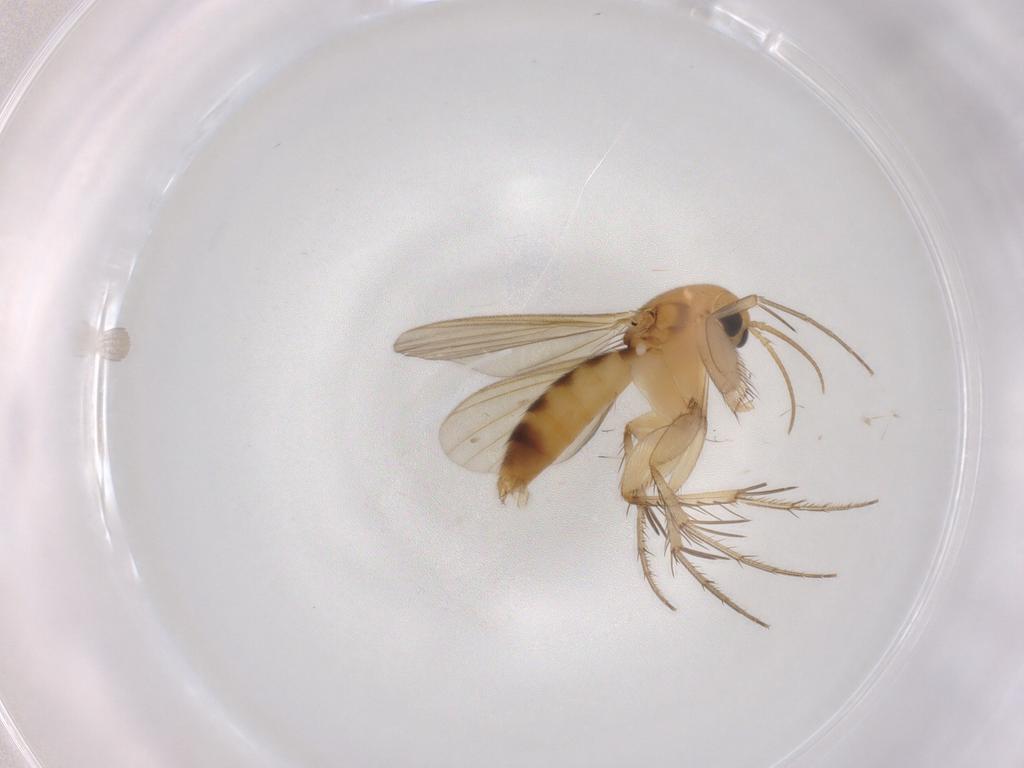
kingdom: Animalia
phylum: Arthropoda
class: Insecta
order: Diptera
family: Mycetophilidae
